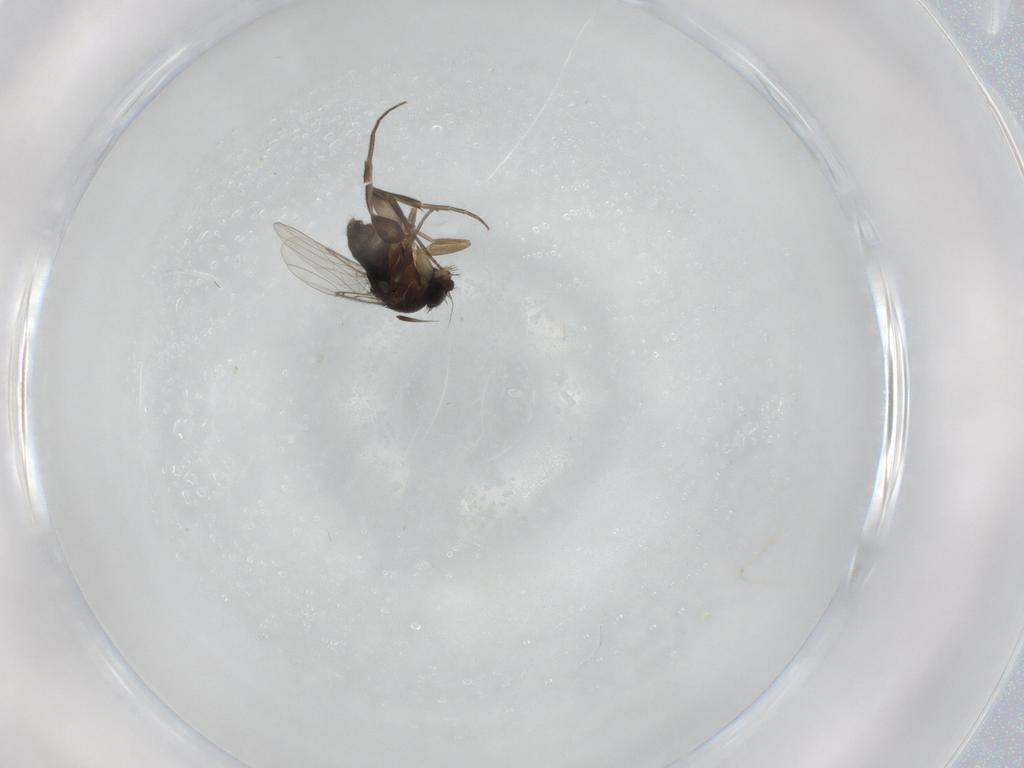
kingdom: Animalia
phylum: Arthropoda
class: Insecta
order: Diptera
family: Phoridae
